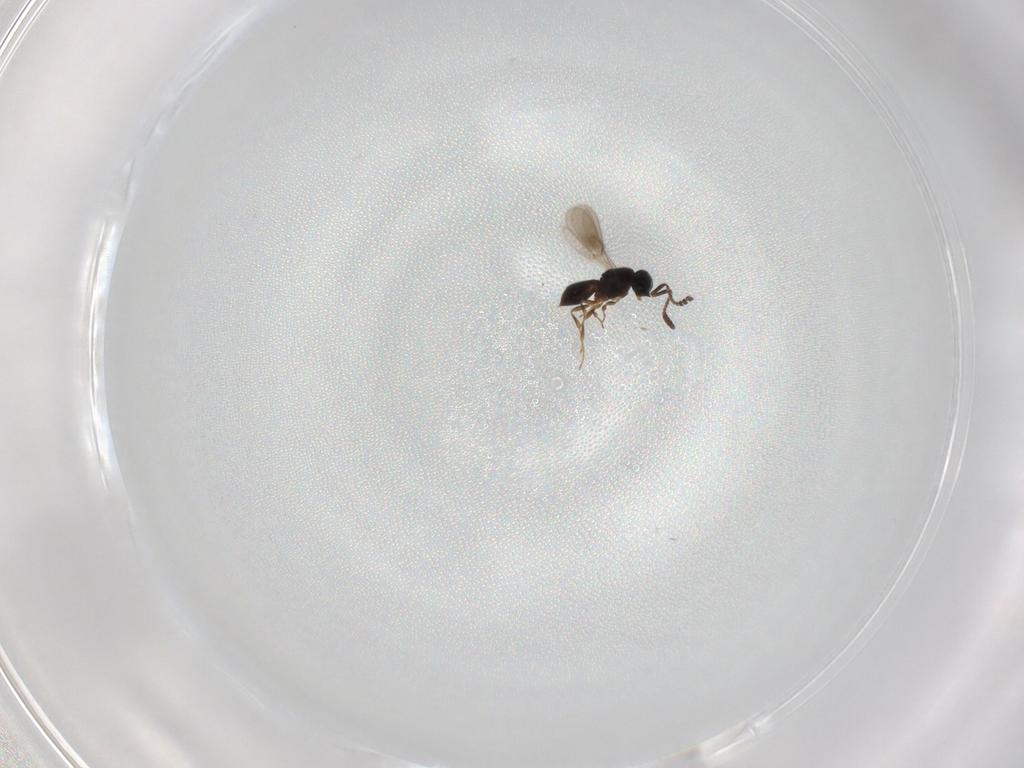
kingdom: Animalia
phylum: Arthropoda
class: Insecta
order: Hymenoptera
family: Scelionidae
